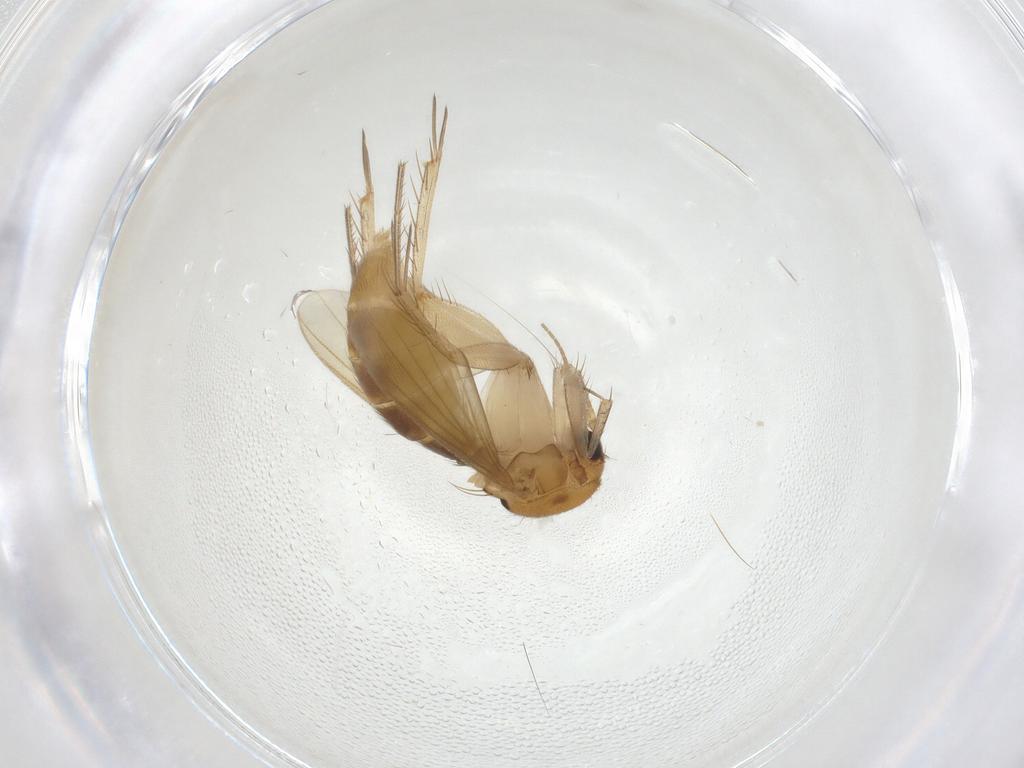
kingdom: Animalia
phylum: Arthropoda
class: Insecta
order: Diptera
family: Mycetophilidae
